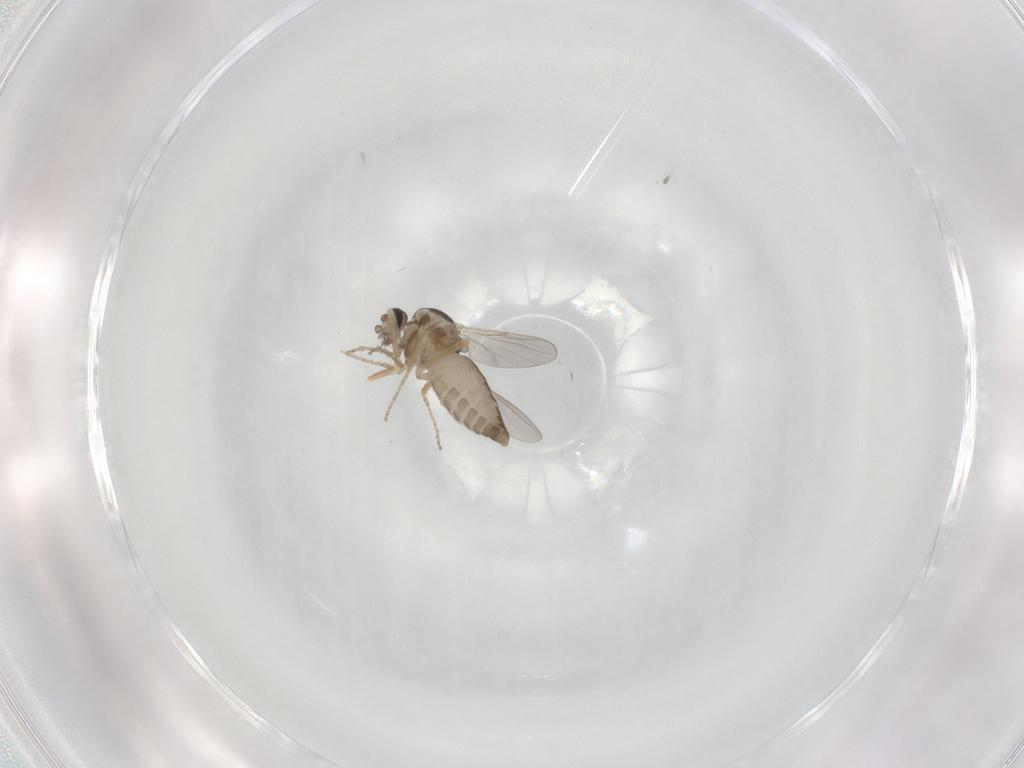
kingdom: Animalia
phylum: Arthropoda
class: Insecta
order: Diptera
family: Ceratopogonidae
